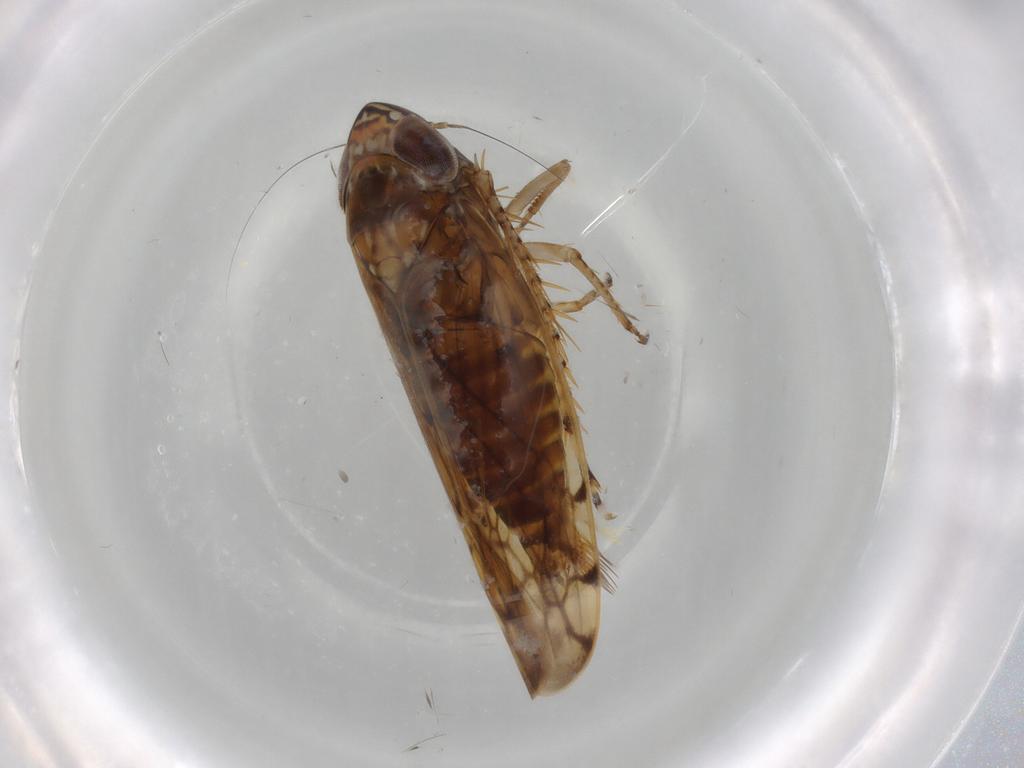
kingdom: Animalia
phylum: Arthropoda
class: Insecta
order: Hemiptera
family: Cicadellidae
